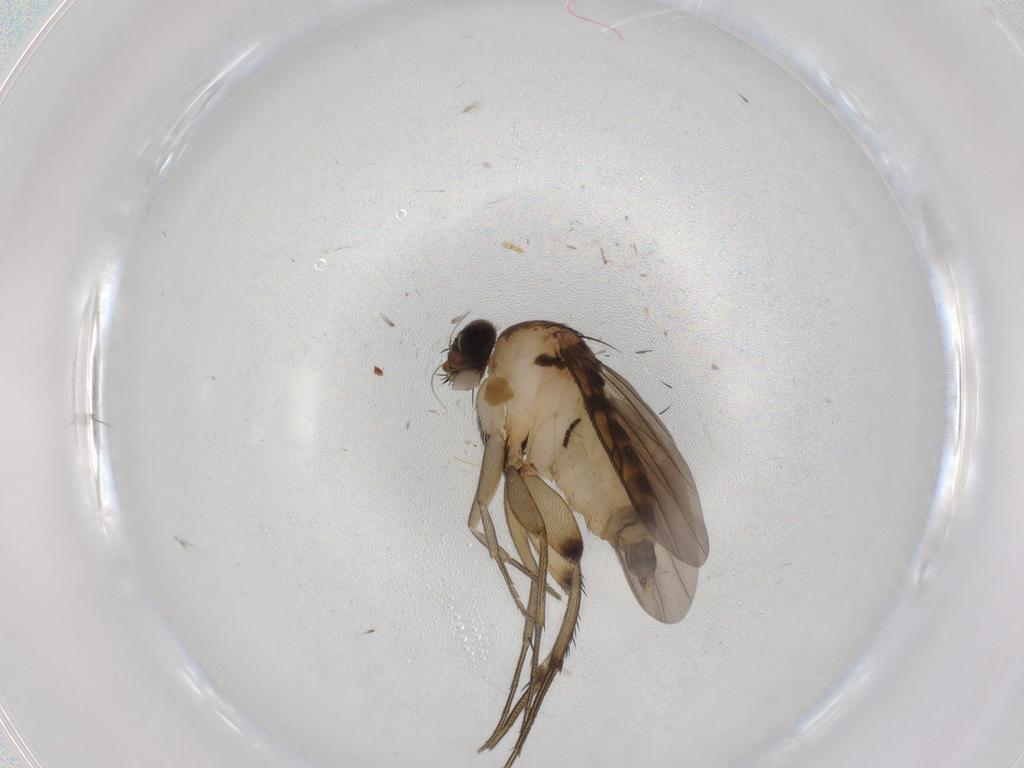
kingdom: Animalia
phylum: Arthropoda
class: Insecta
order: Diptera
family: Phoridae
